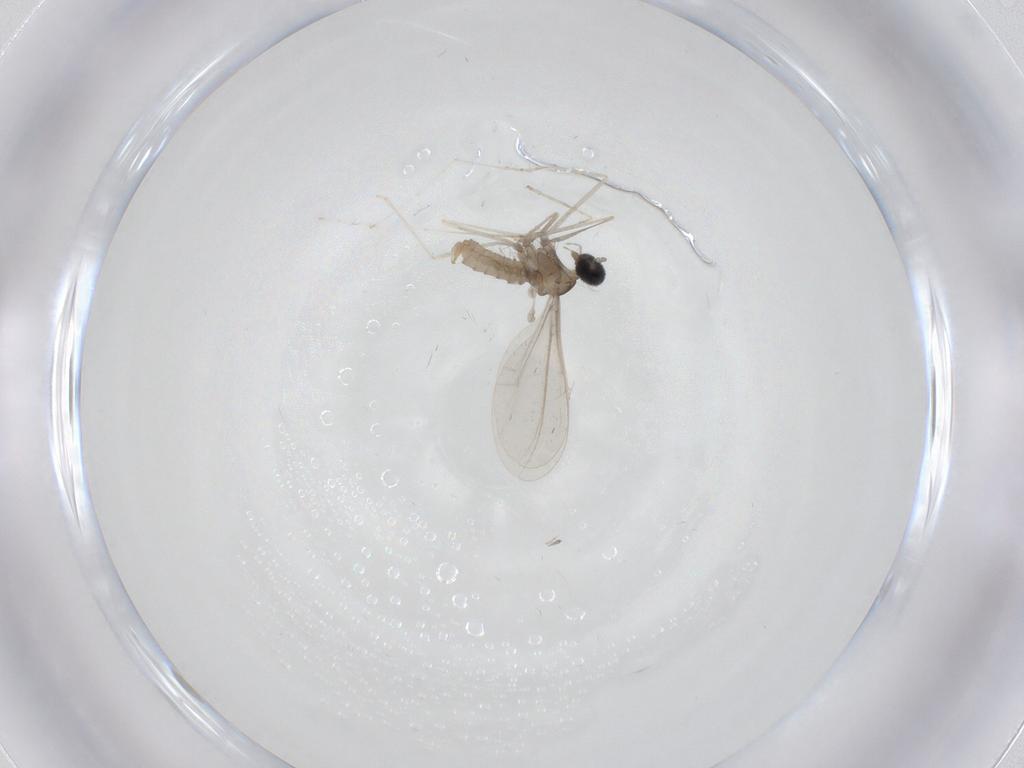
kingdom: Animalia
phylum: Arthropoda
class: Insecta
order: Diptera
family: Cecidomyiidae
